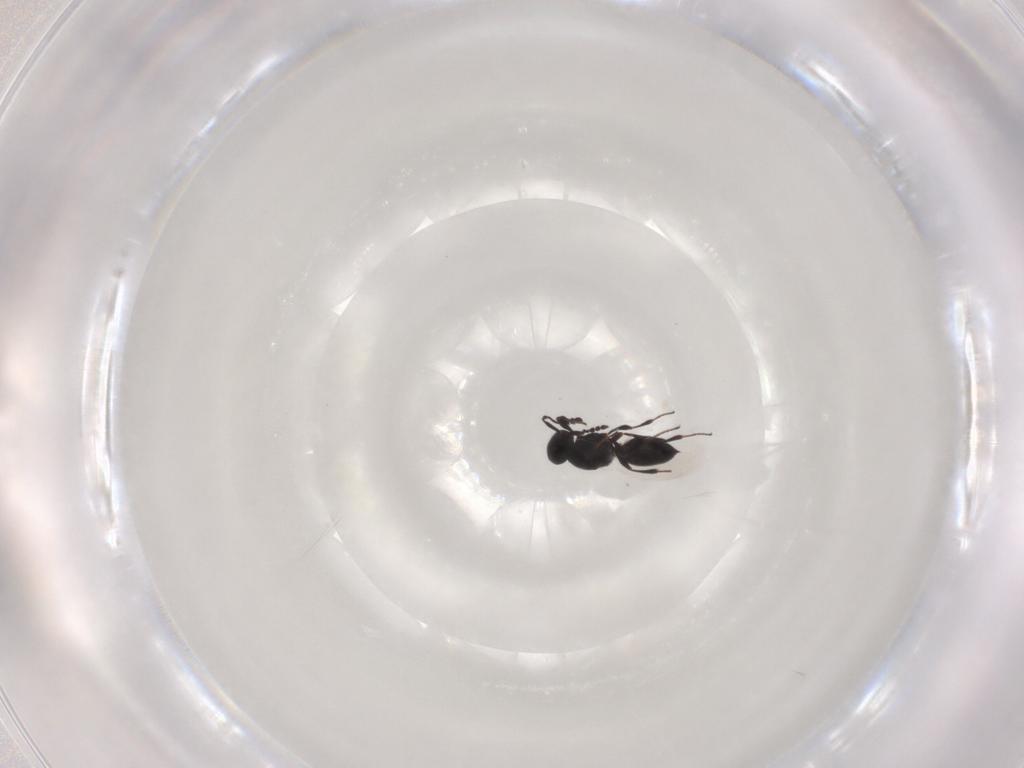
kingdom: Animalia
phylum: Arthropoda
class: Insecta
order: Hymenoptera
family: Platygastridae
